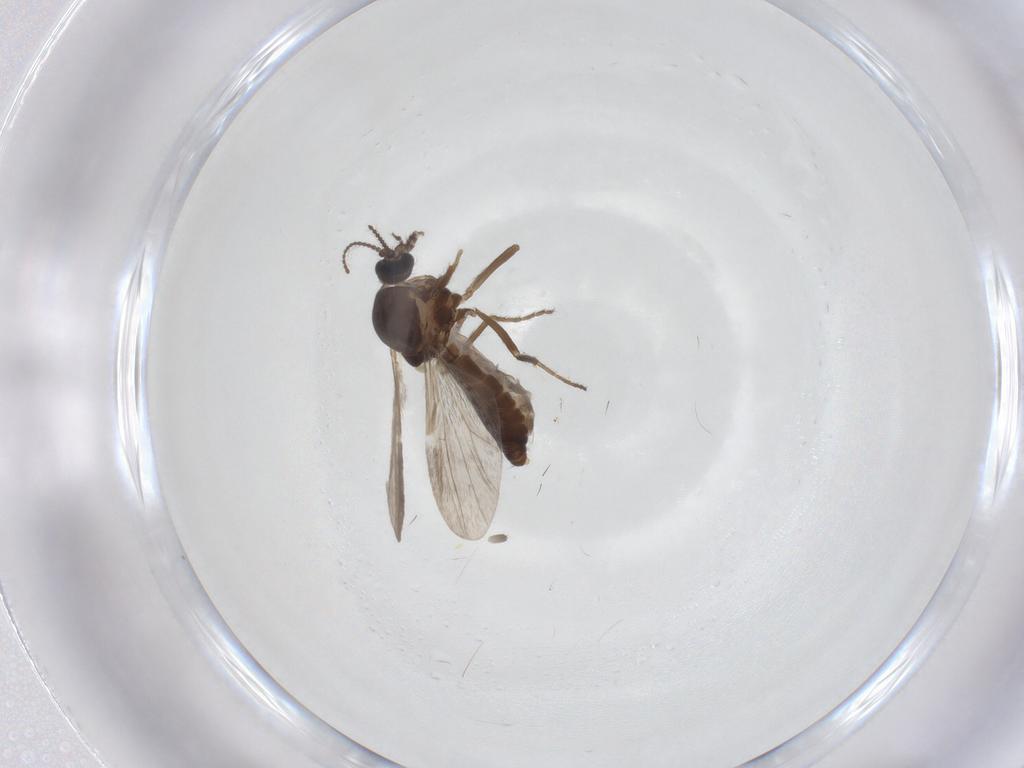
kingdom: Animalia
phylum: Arthropoda
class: Insecta
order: Diptera
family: Ceratopogonidae
